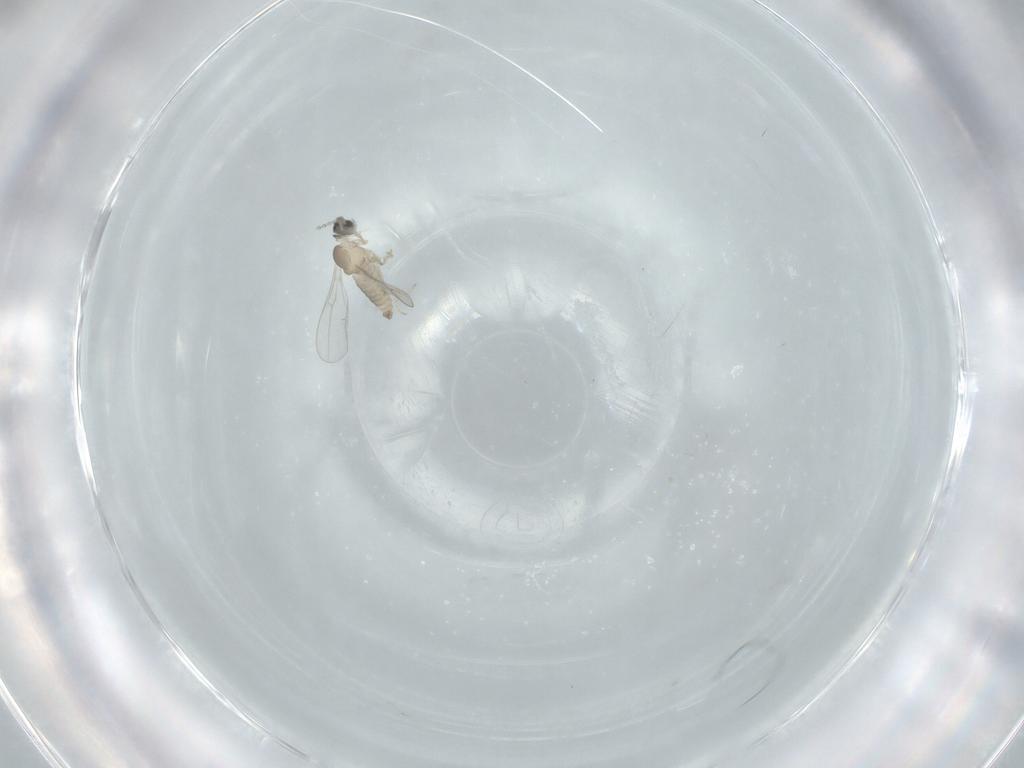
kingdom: Animalia
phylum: Arthropoda
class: Insecta
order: Diptera
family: Cecidomyiidae
